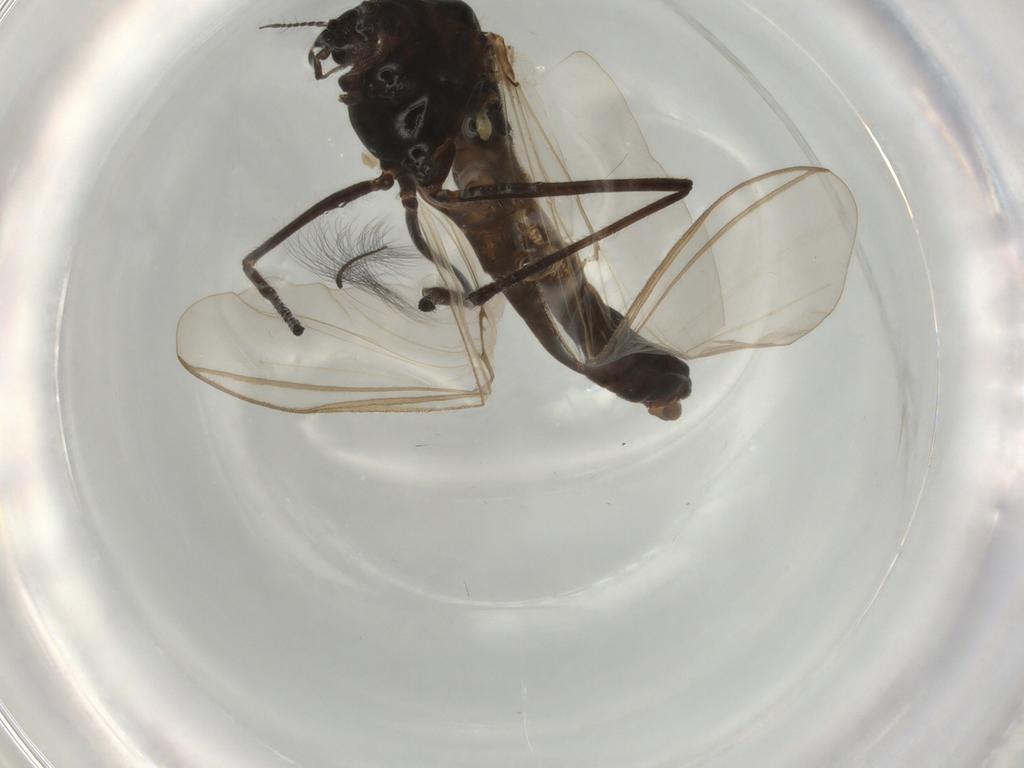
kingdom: Animalia
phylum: Arthropoda
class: Insecta
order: Diptera
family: Chironomidae
